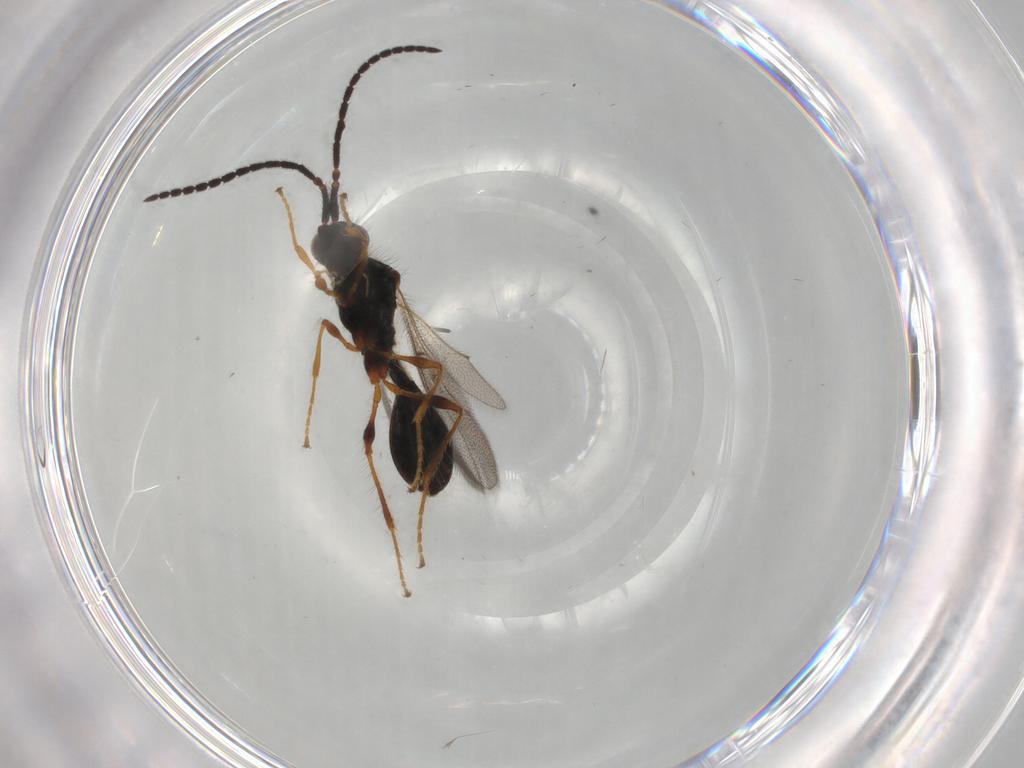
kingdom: Animalia
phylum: Arthropoda
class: Insecta
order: Hymenoptera
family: Diapriidae
